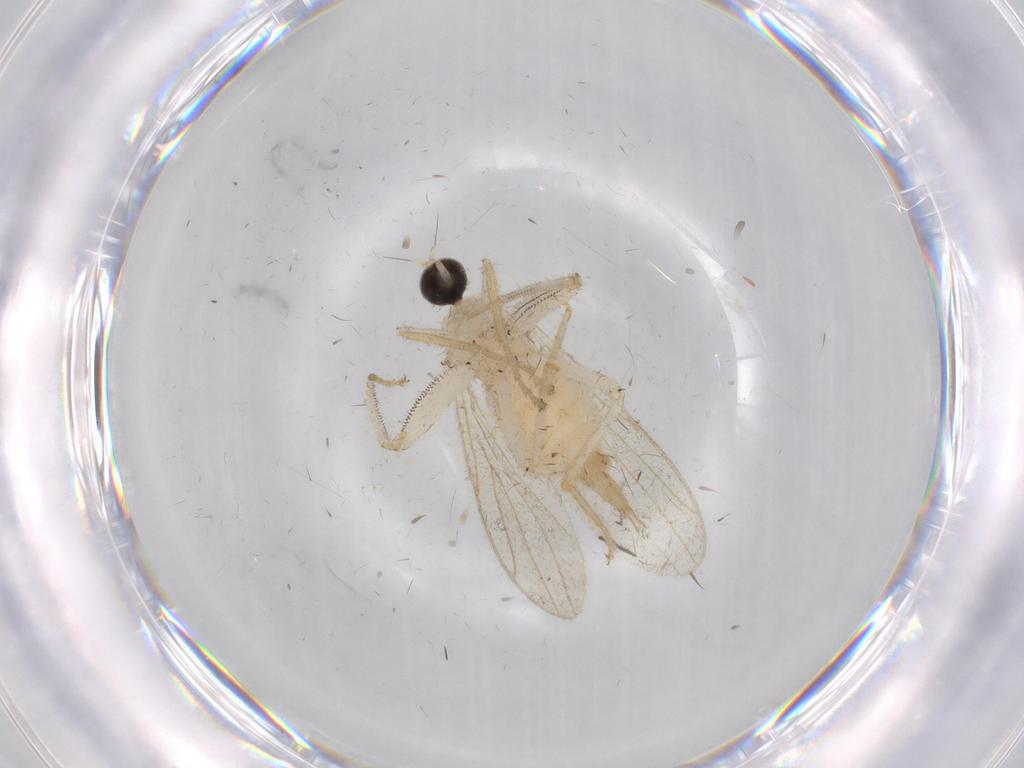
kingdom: Animalia
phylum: Arthropoda
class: Insecta
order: Diptera
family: Hybotidae
